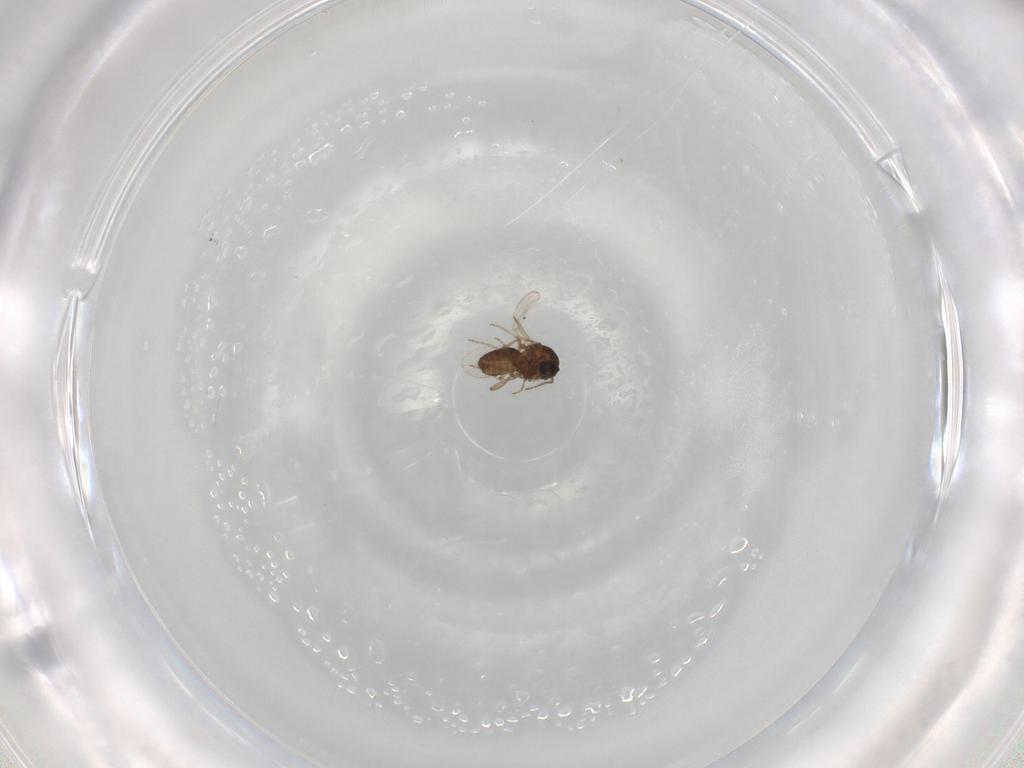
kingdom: Animalia
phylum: Arthropoda
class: Insecta
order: Diptera
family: Ceratopogonidae
